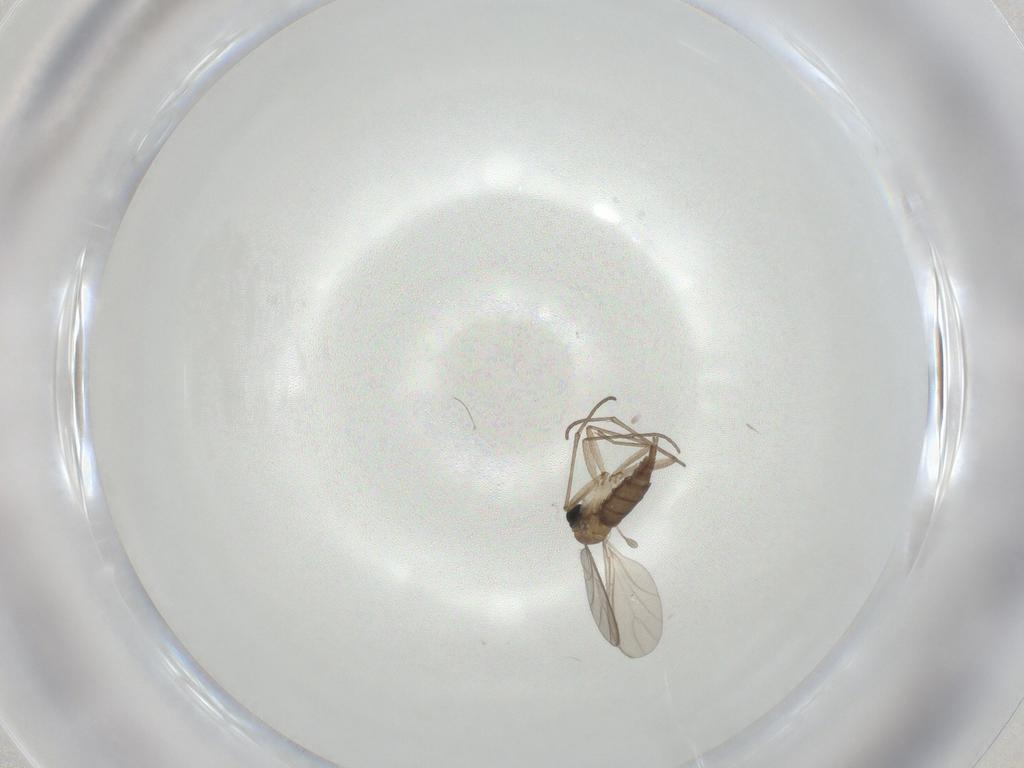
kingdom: Animalia
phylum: Arthropoda
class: Insecta
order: Diptera
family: Sciaridae
